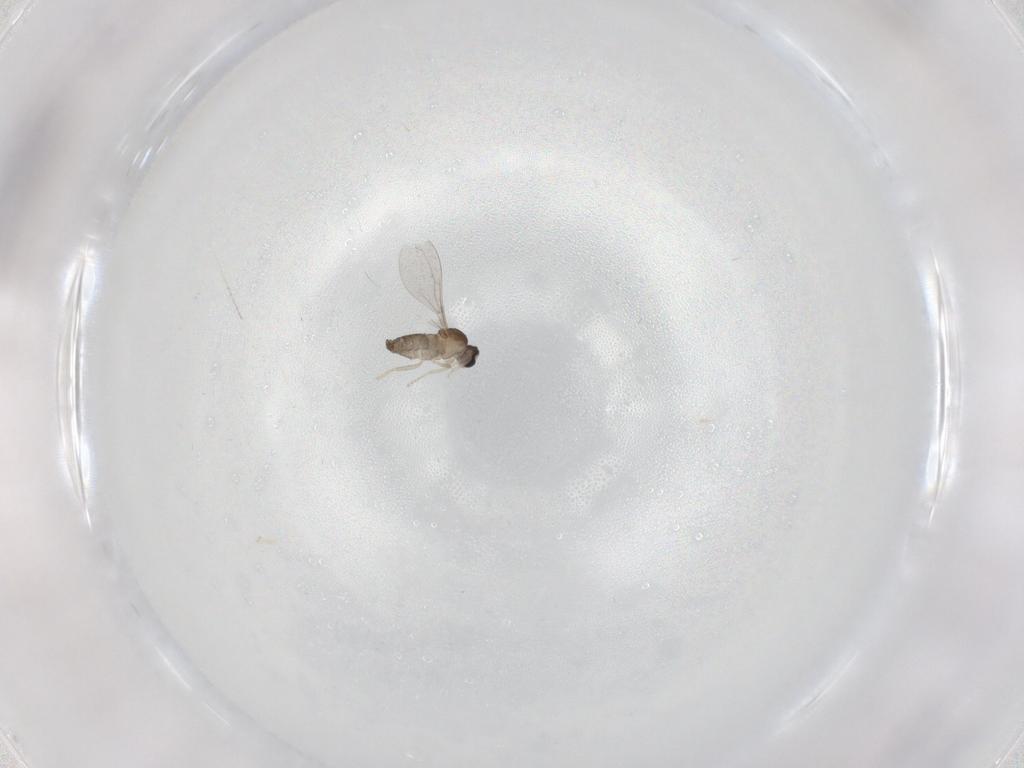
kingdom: Animalia
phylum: Arthropoda
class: Insecta
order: Diptera
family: Cecidomyiidae
